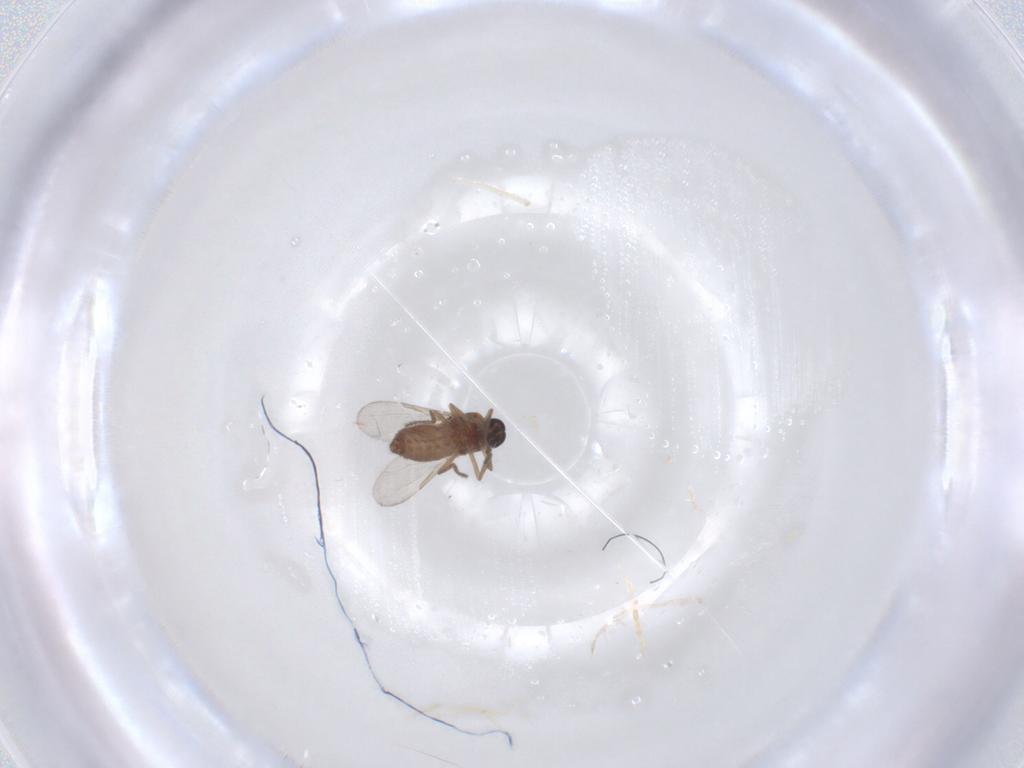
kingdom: Animalia
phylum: Arthropoda
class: Insecta
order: Diptera
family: Ceratopogonidae
